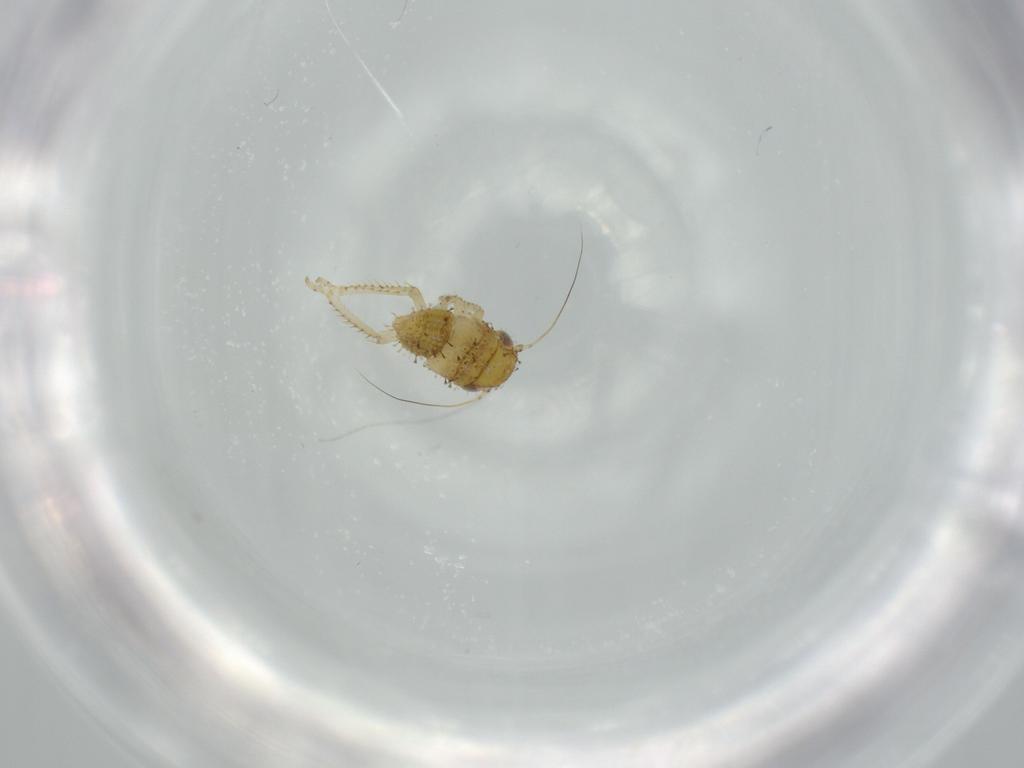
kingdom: Animalia
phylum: Arthropoda
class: Insecta
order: Hemiptera
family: Cicadellidae
